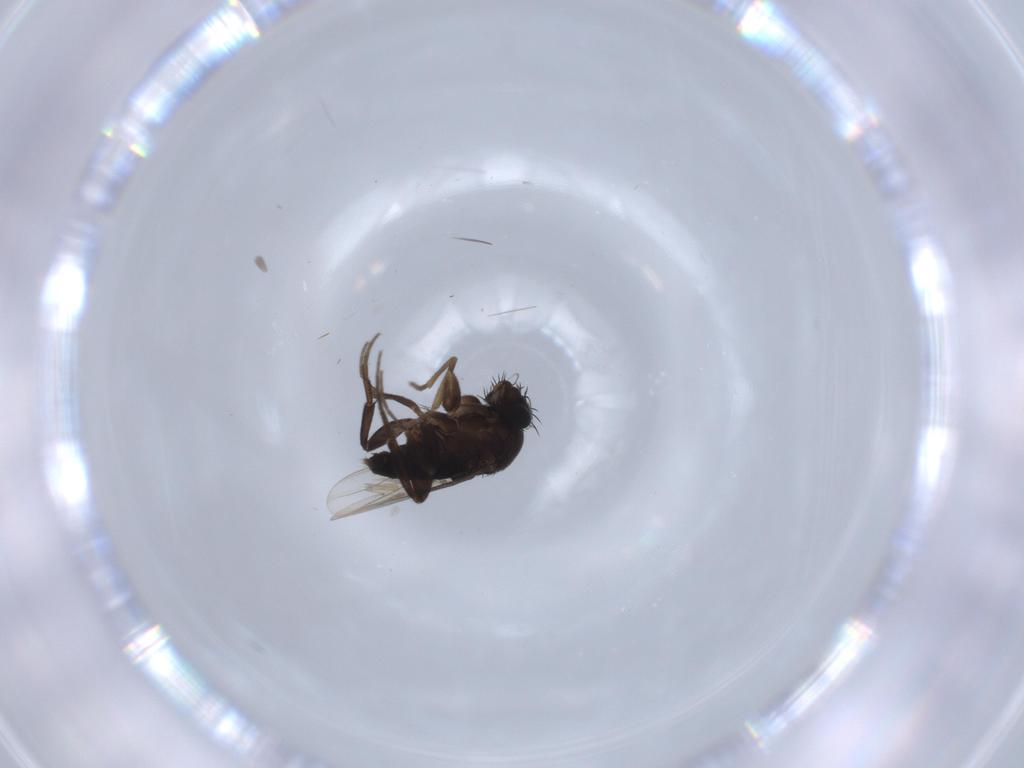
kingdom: Animalia
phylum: Arthropoda
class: Insecta
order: Diptera
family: Phoridae
